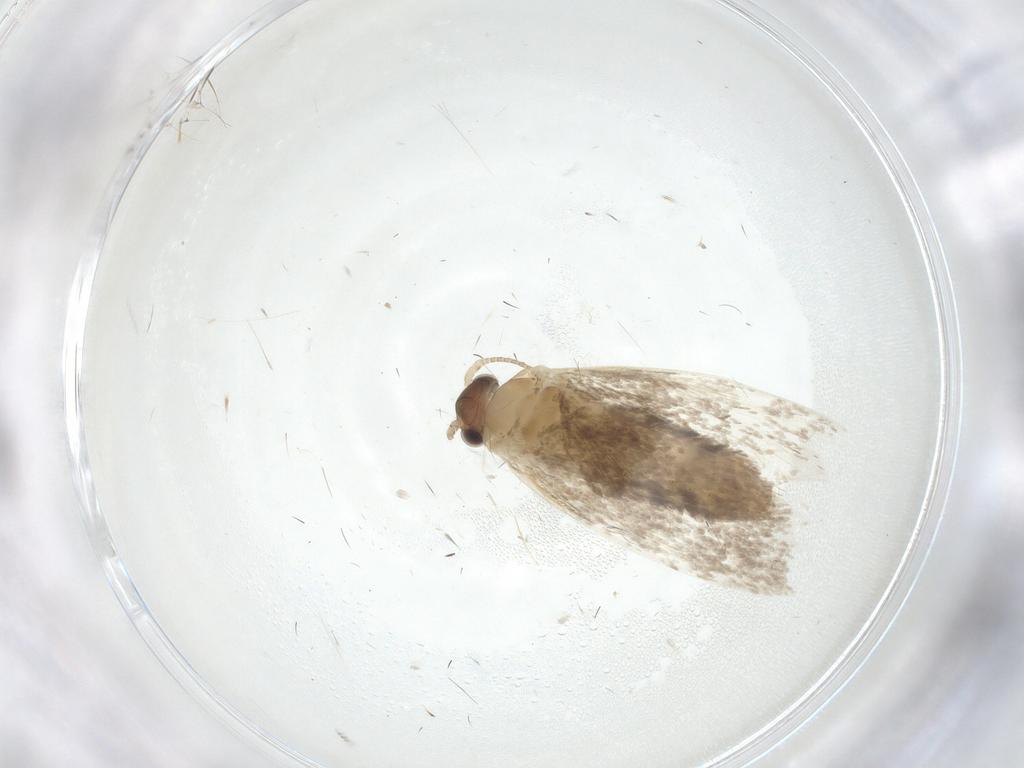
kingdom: Animalia
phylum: Arthropoda
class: Insecta
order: Lepidoptera
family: Dryadaulidae
